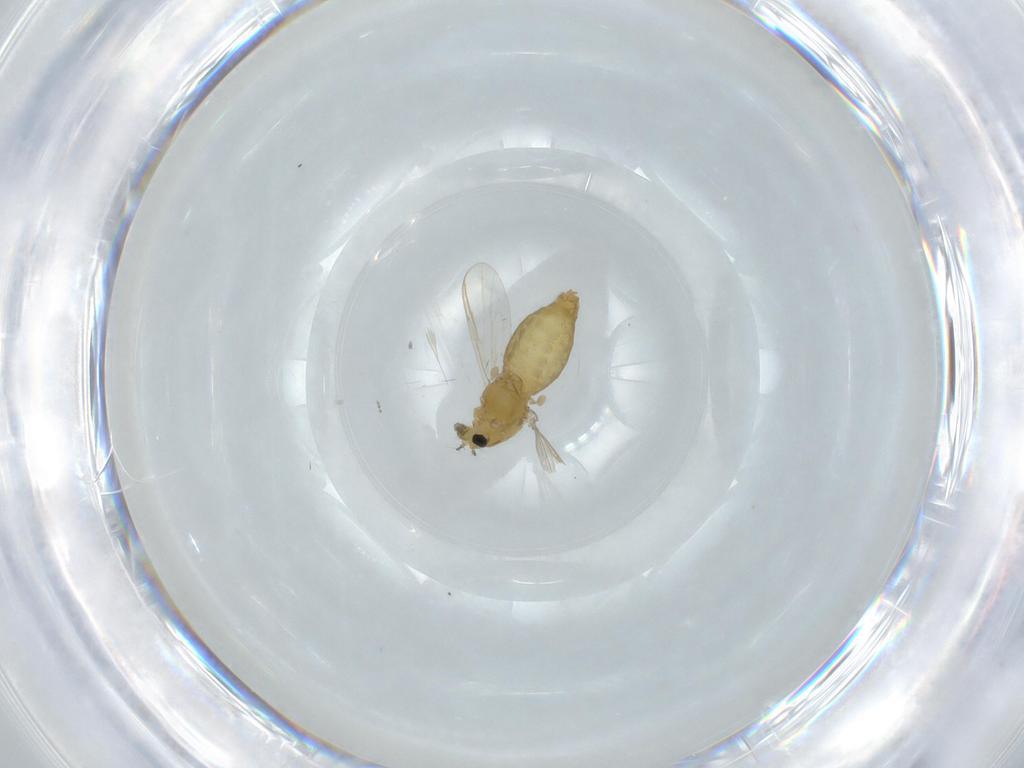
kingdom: Animalia
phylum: Arthropoda
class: Insecta
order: Diptera
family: Chironomidae
